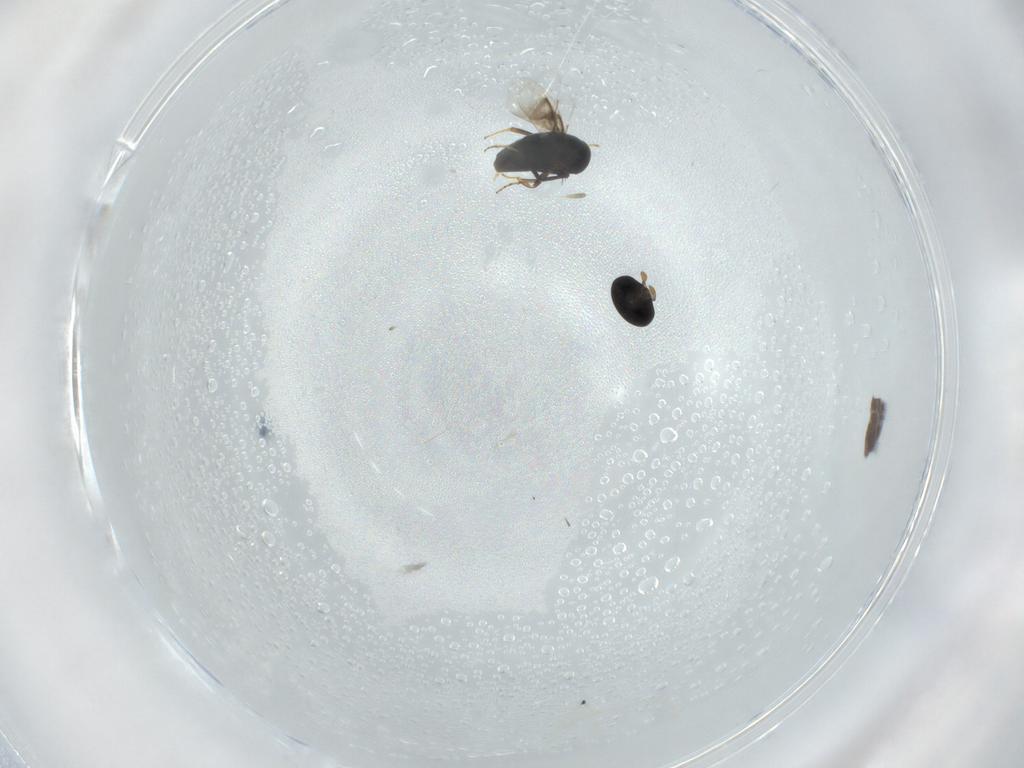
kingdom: Animalia
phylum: Arthropoda
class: Insecta
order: Hymenoptera
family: Signiphoridae
